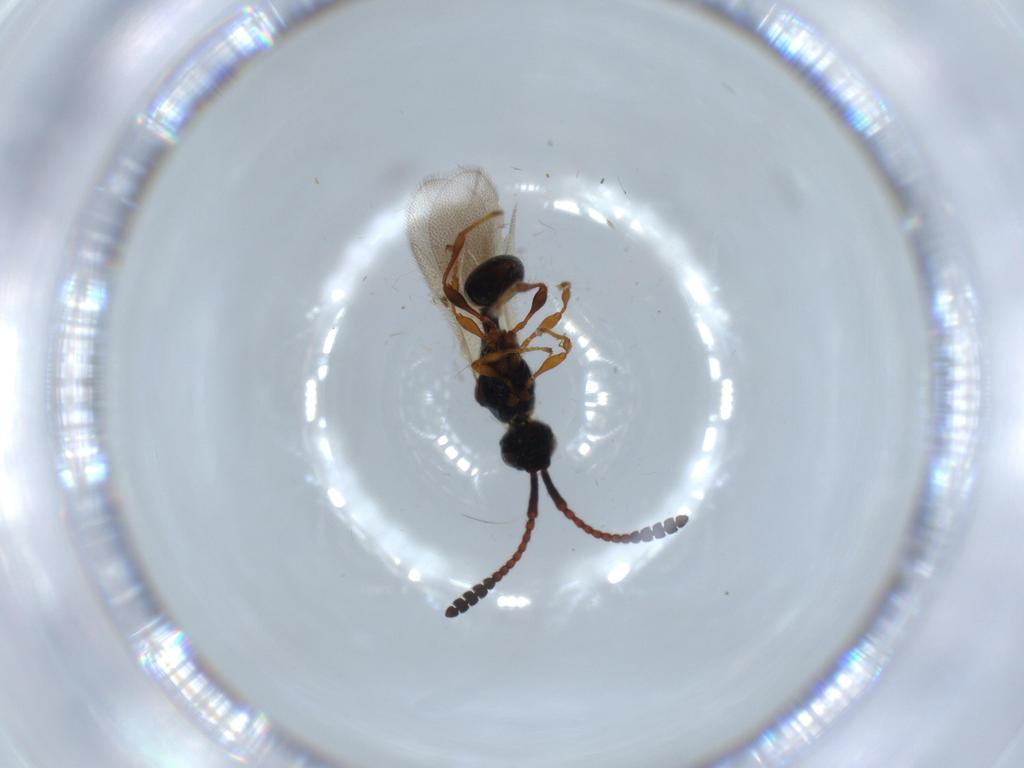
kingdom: Animalia
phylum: Arthropoda
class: Insecta
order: Hymenoptera
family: Diapriidae
